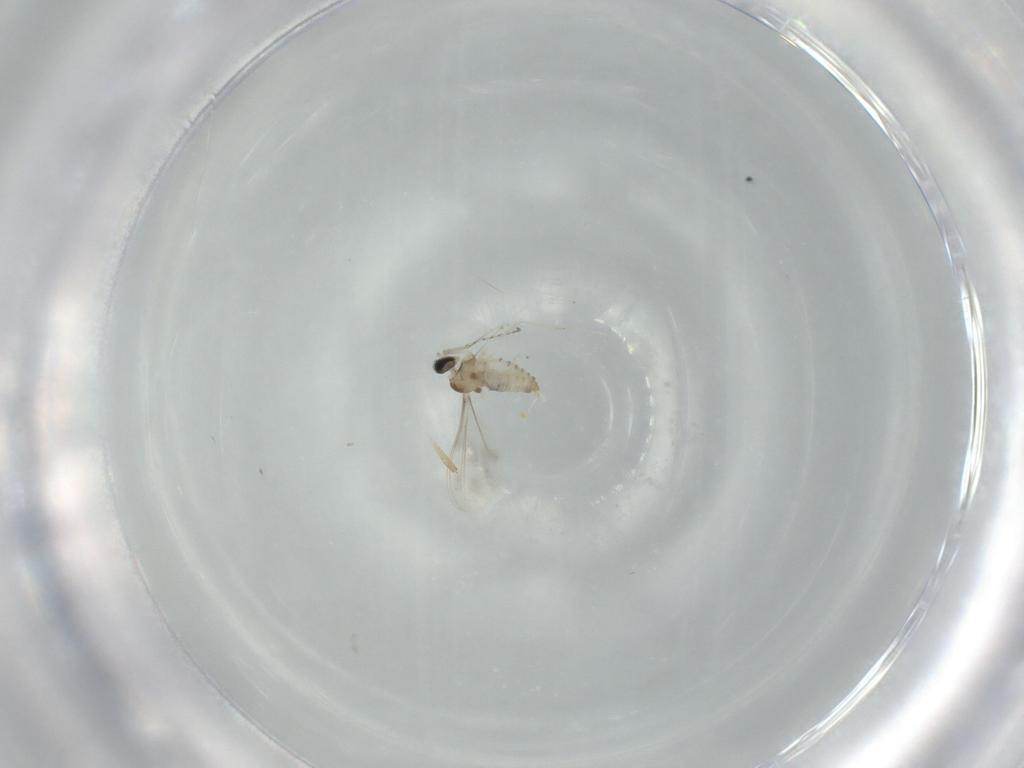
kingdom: Animalia
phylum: Arthropoda
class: Insecta
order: Diptera
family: Cecidomyiidae
